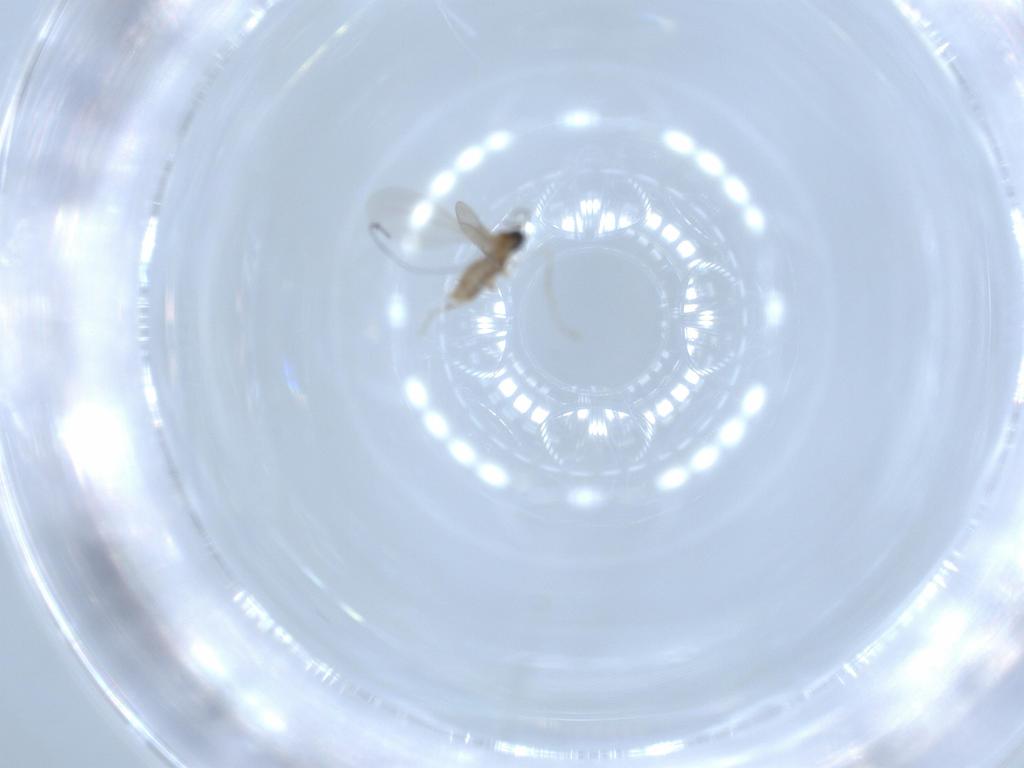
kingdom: Animalia
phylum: Arthropoda
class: Insecta
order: Diptera
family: Cecidomyiidae
